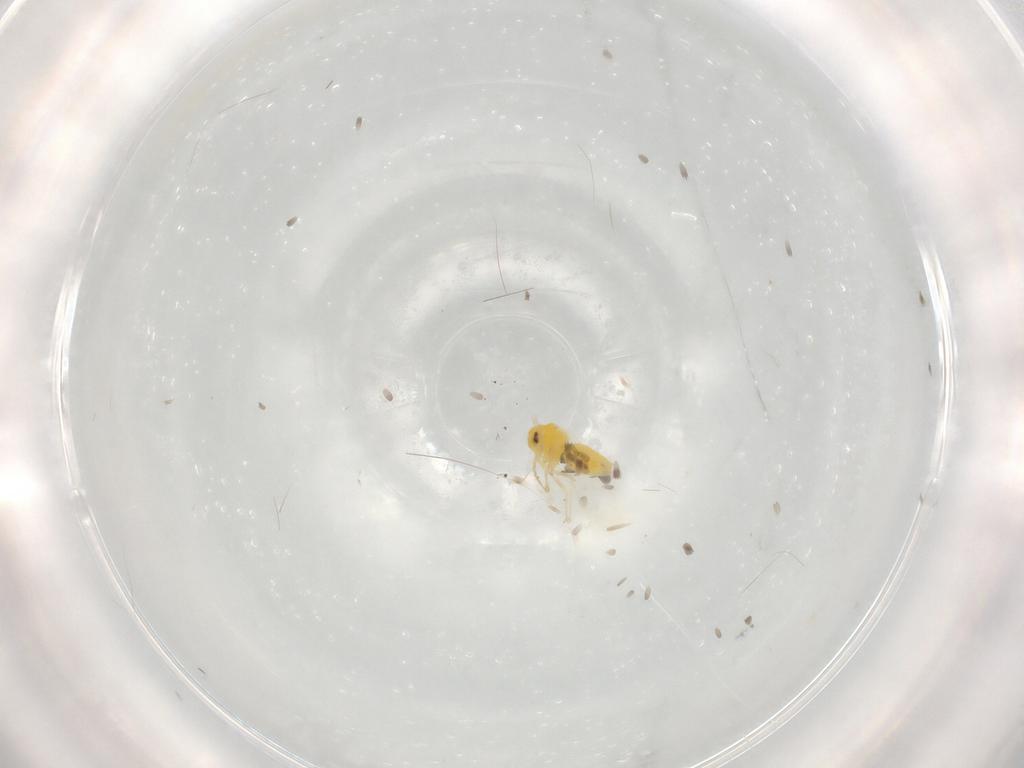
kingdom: Animalia
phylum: Arthropoda
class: Insecta
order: Hemiptera
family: Aleyrodidae
